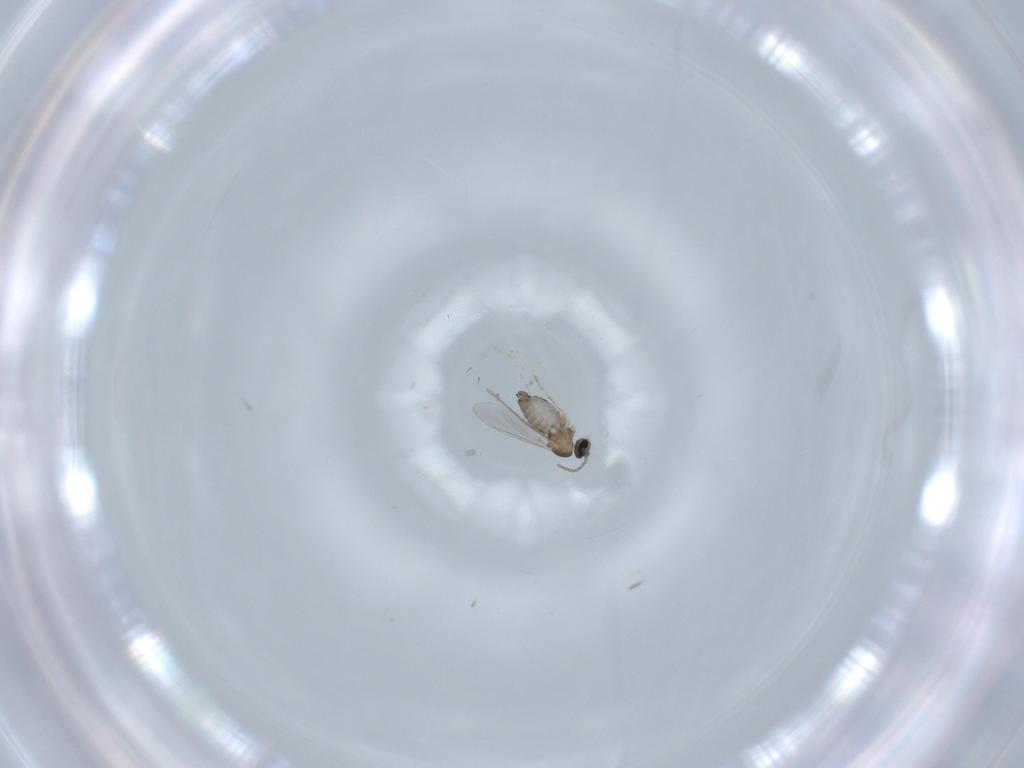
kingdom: Animalia
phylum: Arthropoda
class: Insecta
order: Diptera
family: Cecidomyiidae
